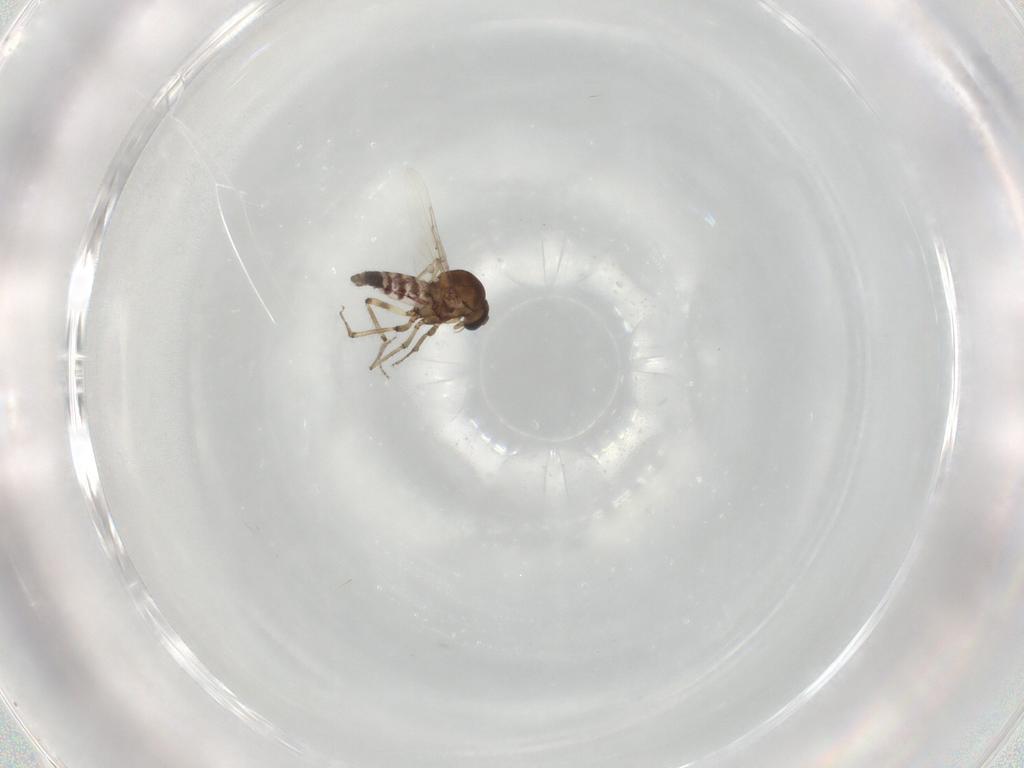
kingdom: Animalia
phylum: Arthropoda
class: Insecta
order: Diptera
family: Ceratopogonidae
